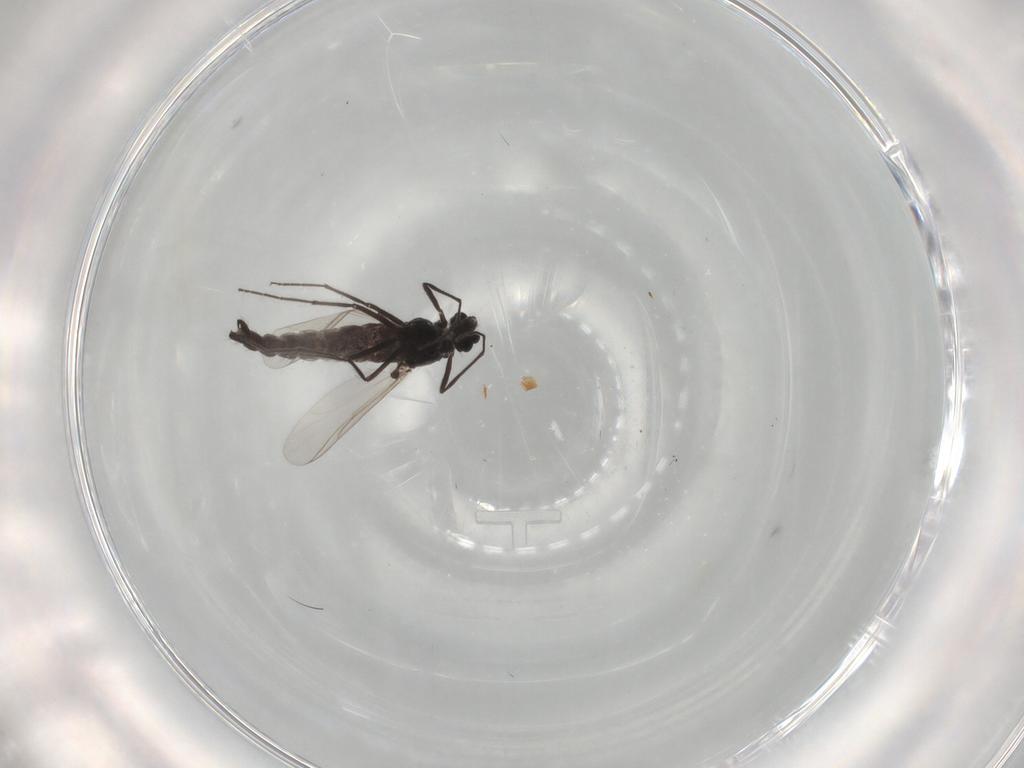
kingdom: Animalia
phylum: Arthropoda
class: Insecta
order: Diptera
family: Chironomidae
